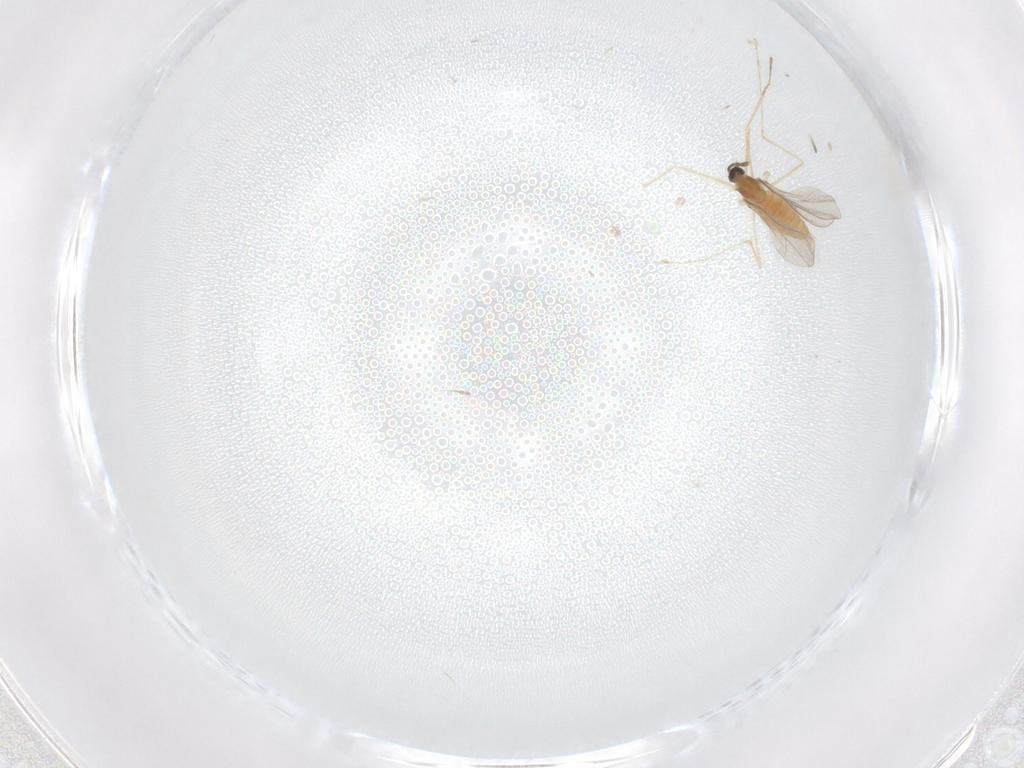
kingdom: Animalia
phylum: Arthropoda
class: Insecta
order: Diptera
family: Cecidomyiidae
